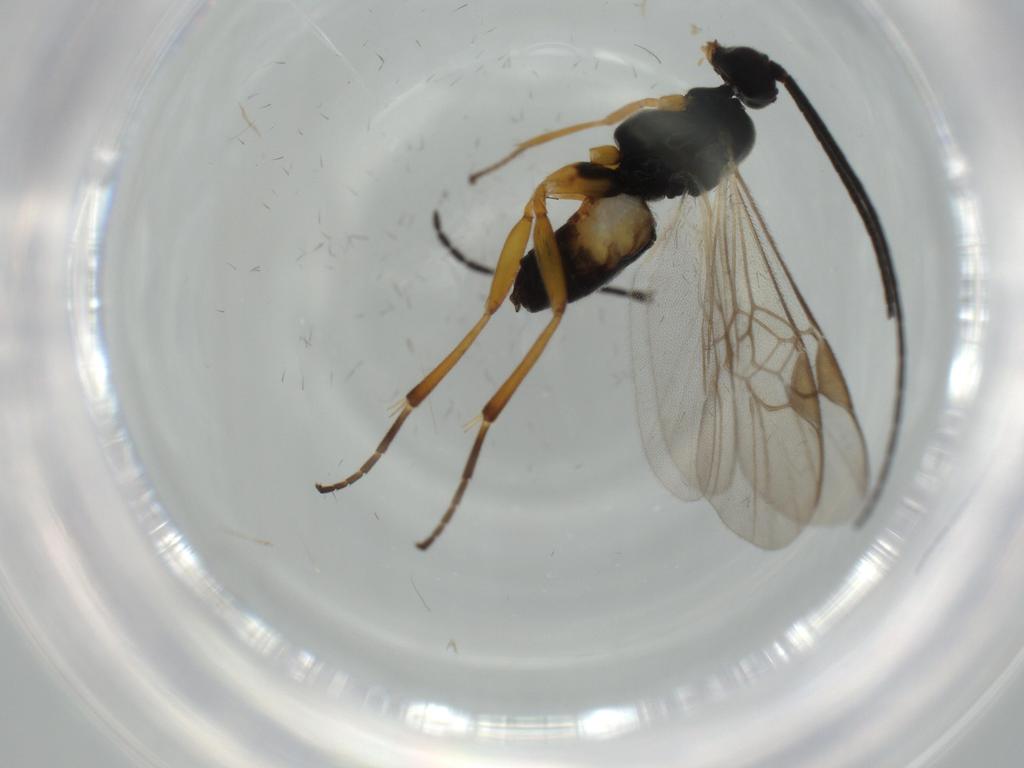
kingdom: Animalia
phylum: Arthropoda
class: Insecta
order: Hymenoptera
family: Braconidae
